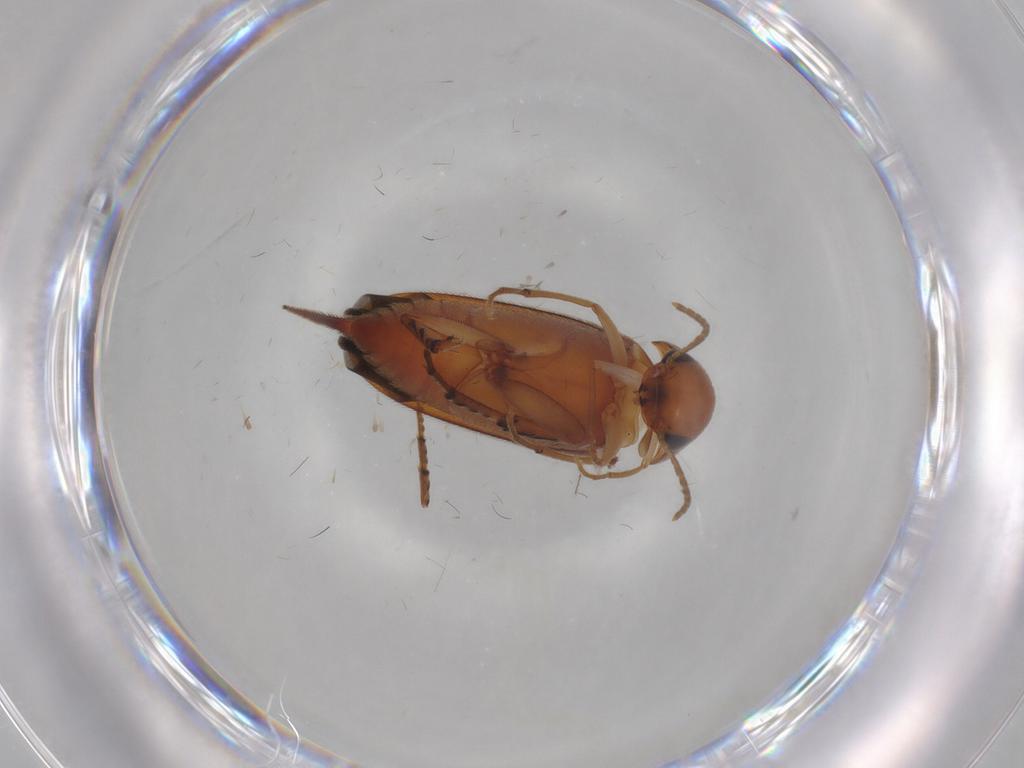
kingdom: Animalia
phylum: Arthropoda
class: Insecta
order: Coleoptera
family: Mordellidae
